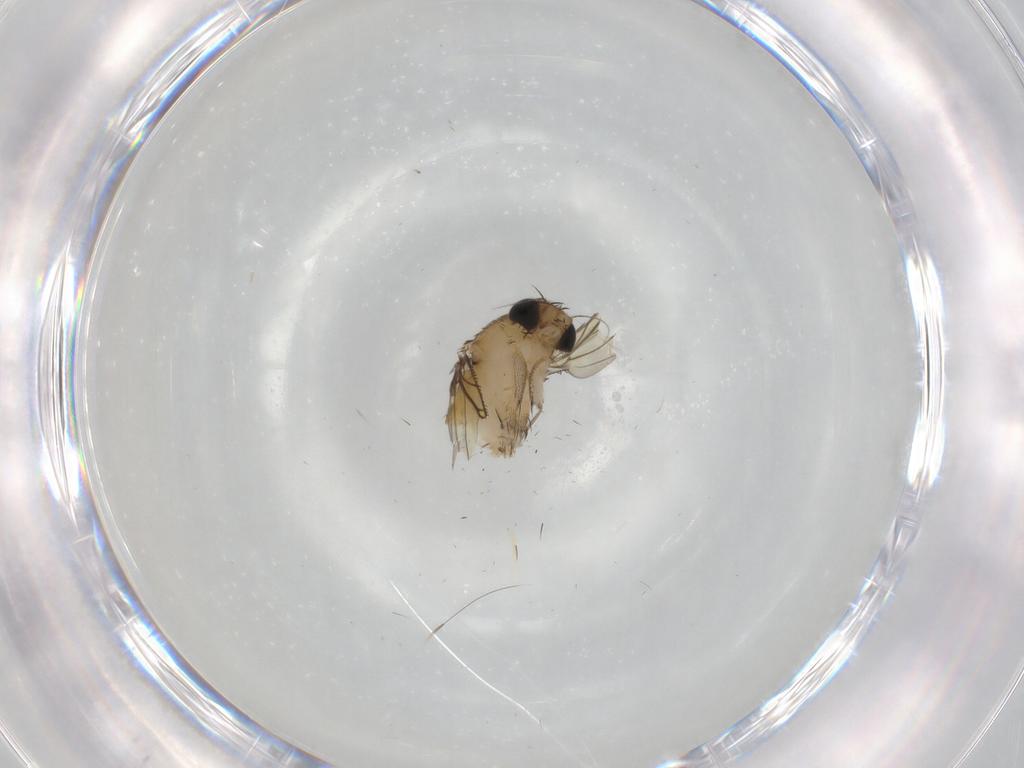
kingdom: Animalia
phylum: Arthropoda
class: Insecta
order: Diptera
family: Phoridae
